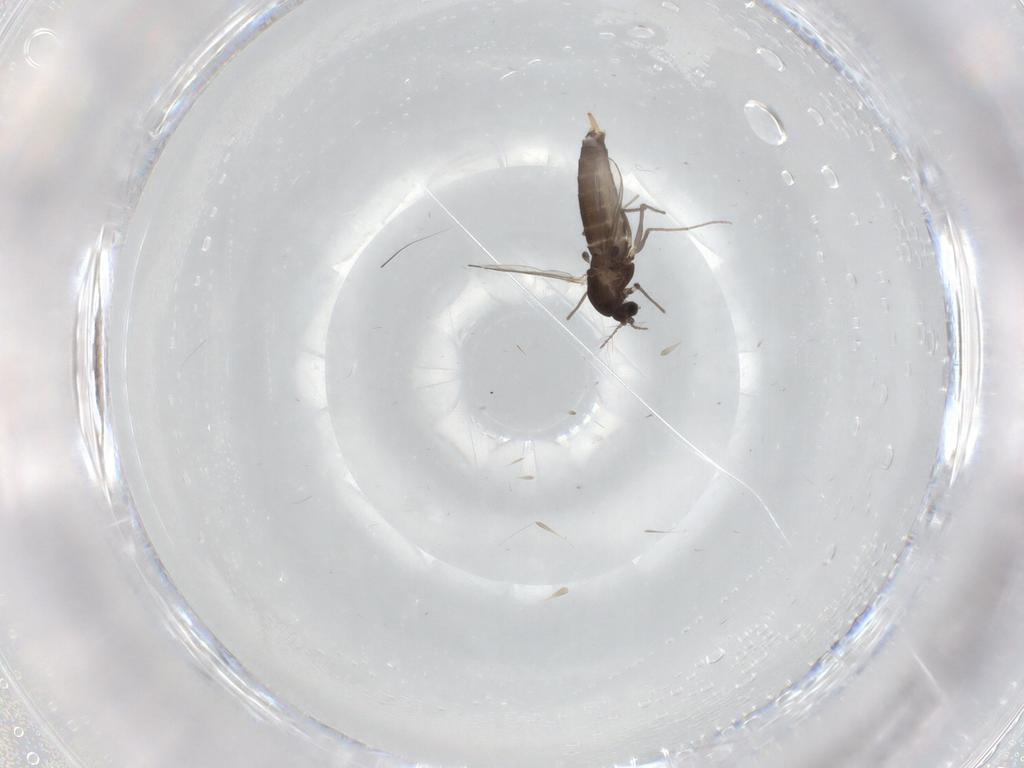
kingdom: Animalia
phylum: Arthropoda
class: Insecta
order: Diptera
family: Chironomidae
